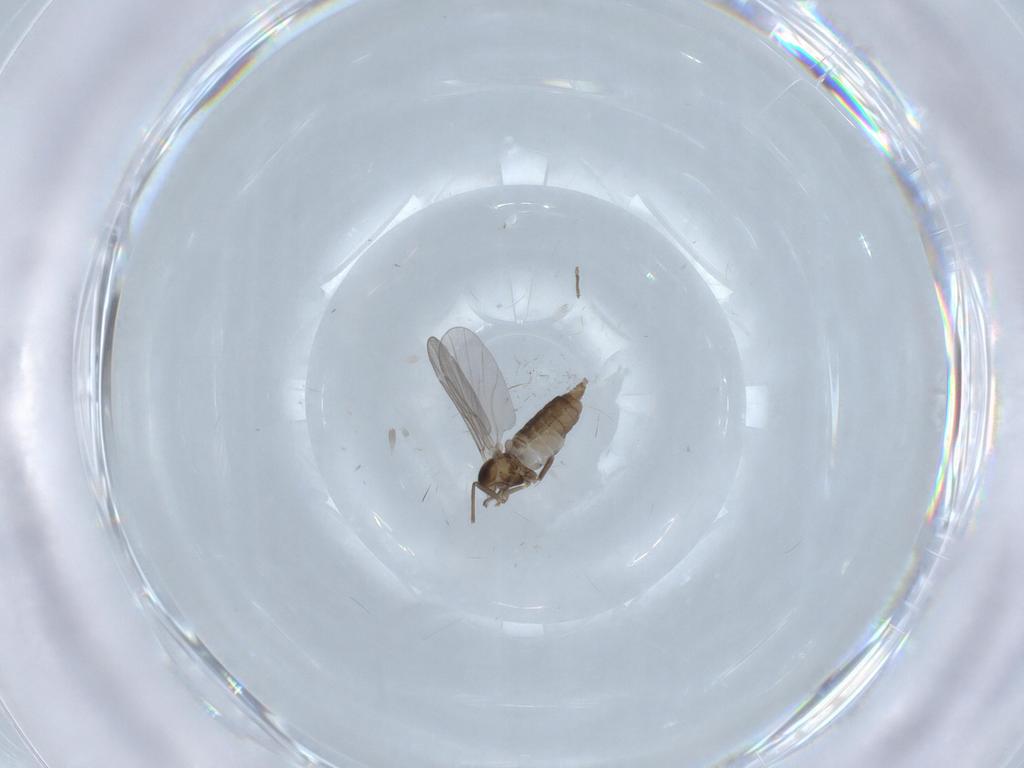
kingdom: Animalia
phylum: Arthropoda
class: Insecta
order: Diptera
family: Cecidomyiidae
